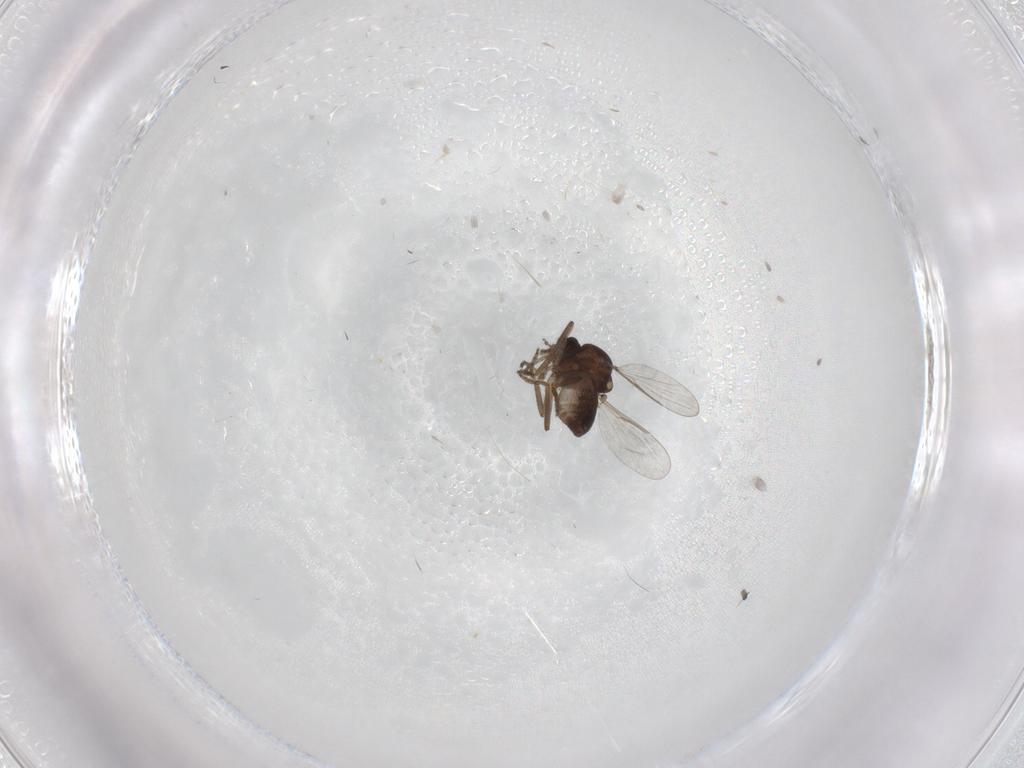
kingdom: Animalia
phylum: Arthropoda
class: Insecta
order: Diptera
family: Ceratopogonidae
